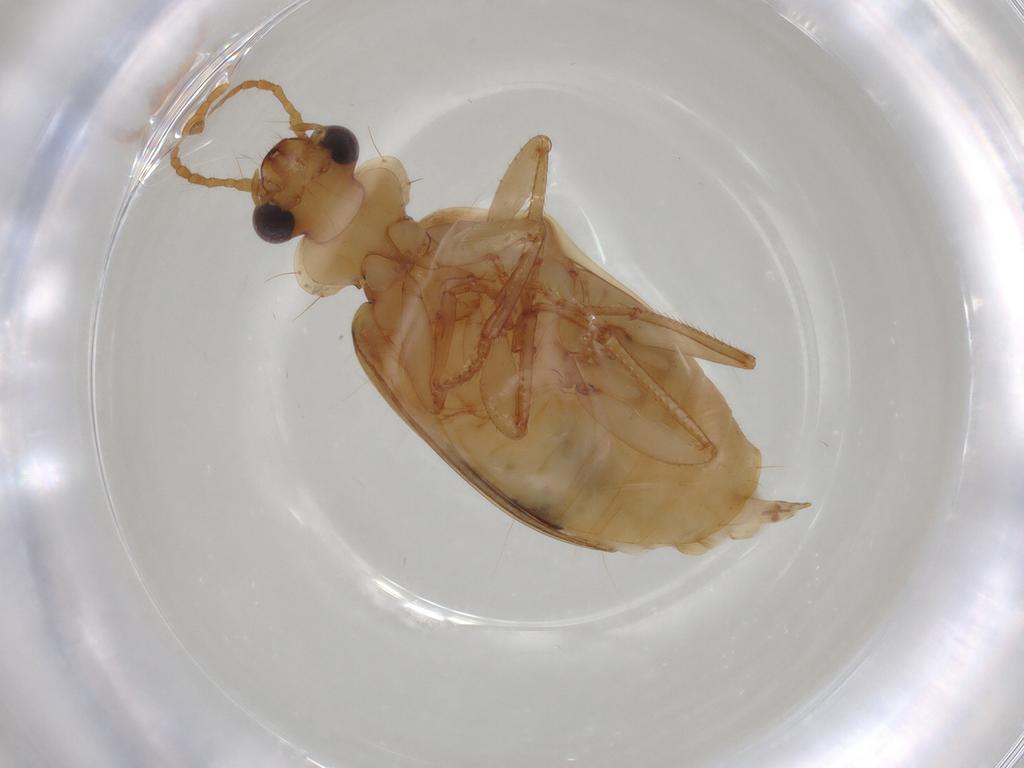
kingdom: Animalia
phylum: Arthropoda
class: Insecta
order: Coleoptera
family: Carabidae
